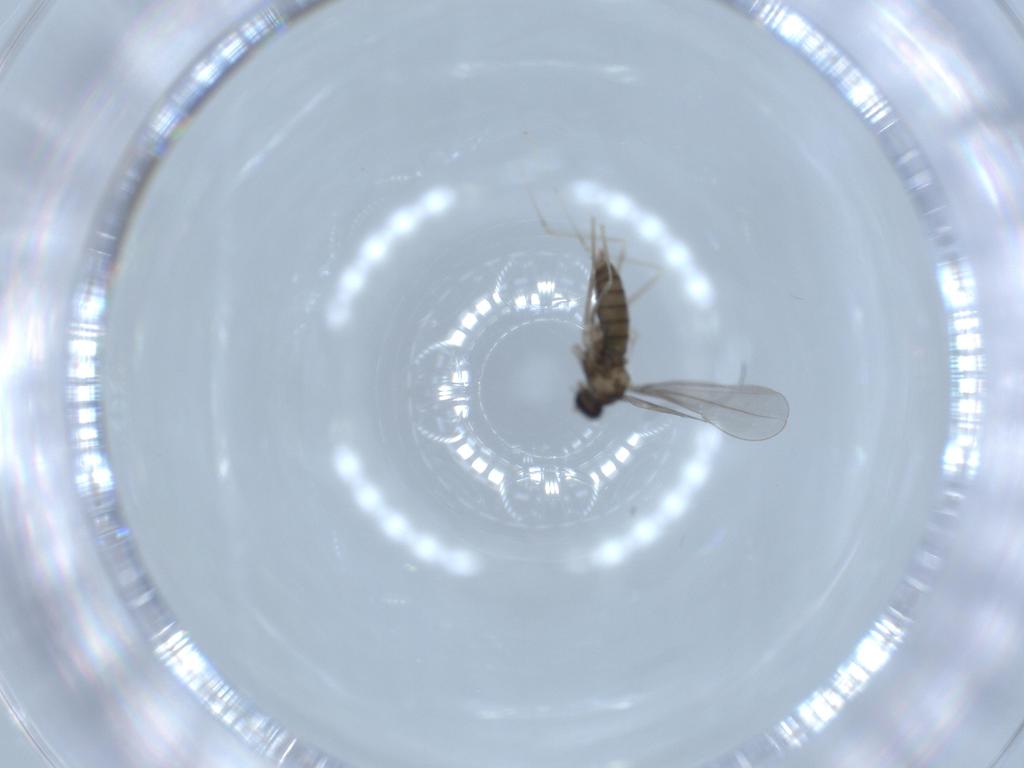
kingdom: Animalia
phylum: Arthropoda
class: Insecta
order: Diptera
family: Cecidomyiidae
